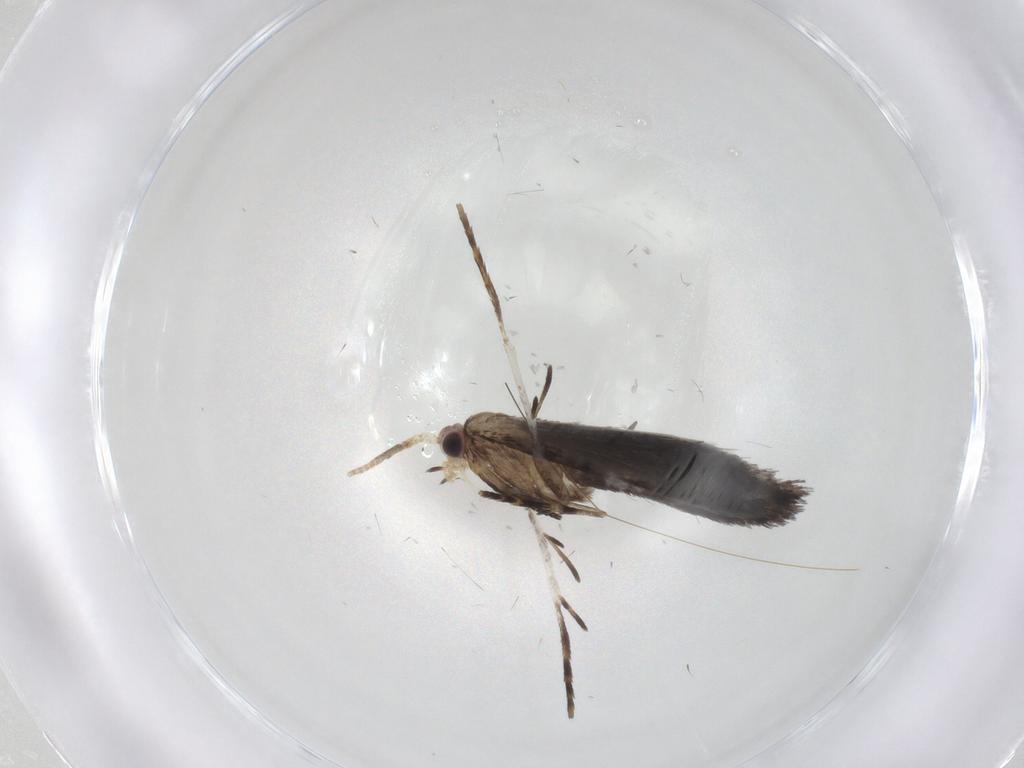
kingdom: Animalia
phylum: Arthropoda
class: Insecta
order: Lepidoptera
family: Tineidae
